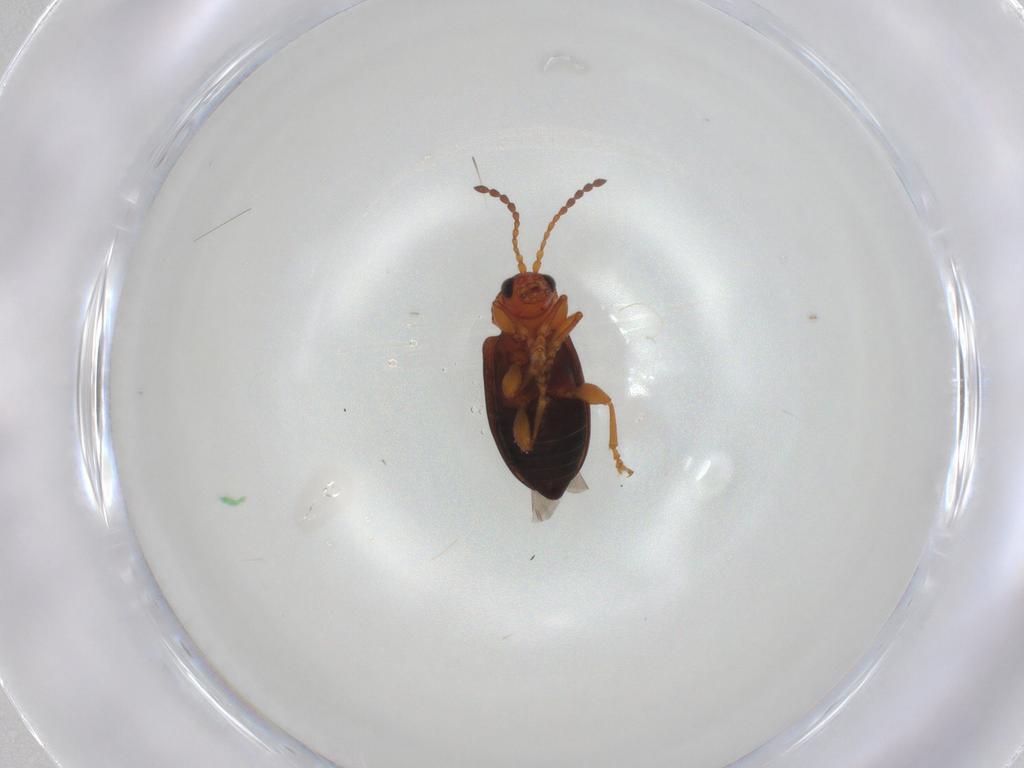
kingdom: Animalia
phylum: Arthropoda
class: Insecta
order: Coleoptera
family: Chrysomelidae
